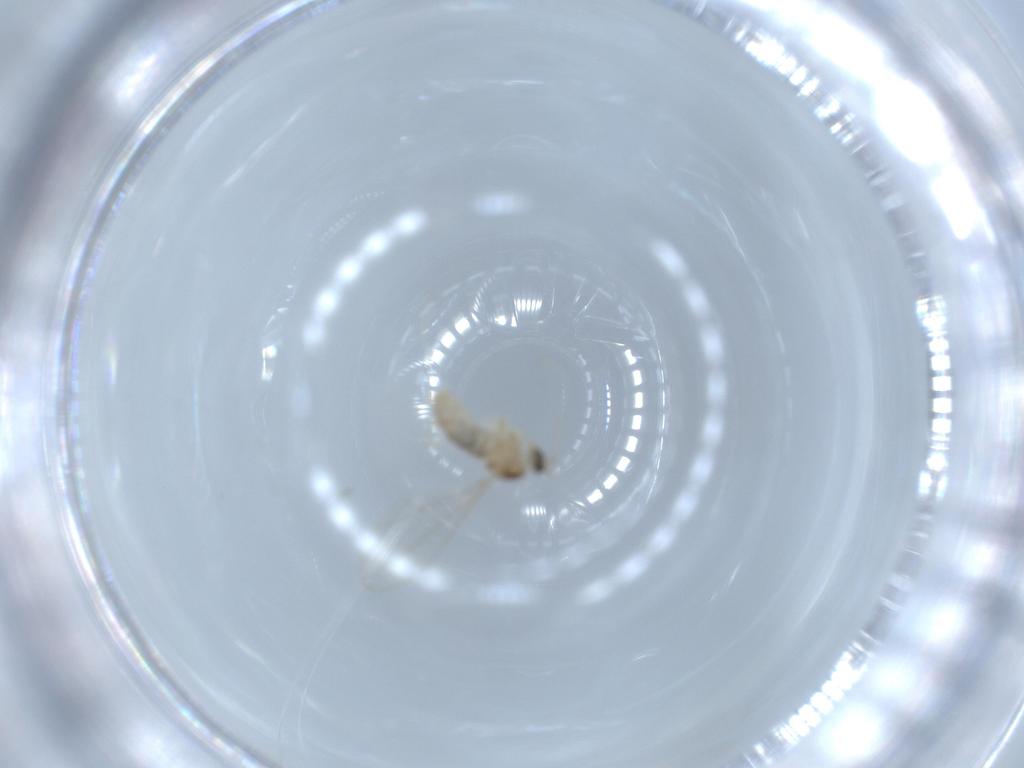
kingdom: Animalia
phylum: Arthropoda
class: Insecta
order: Diptera
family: Cecidomyiidae
